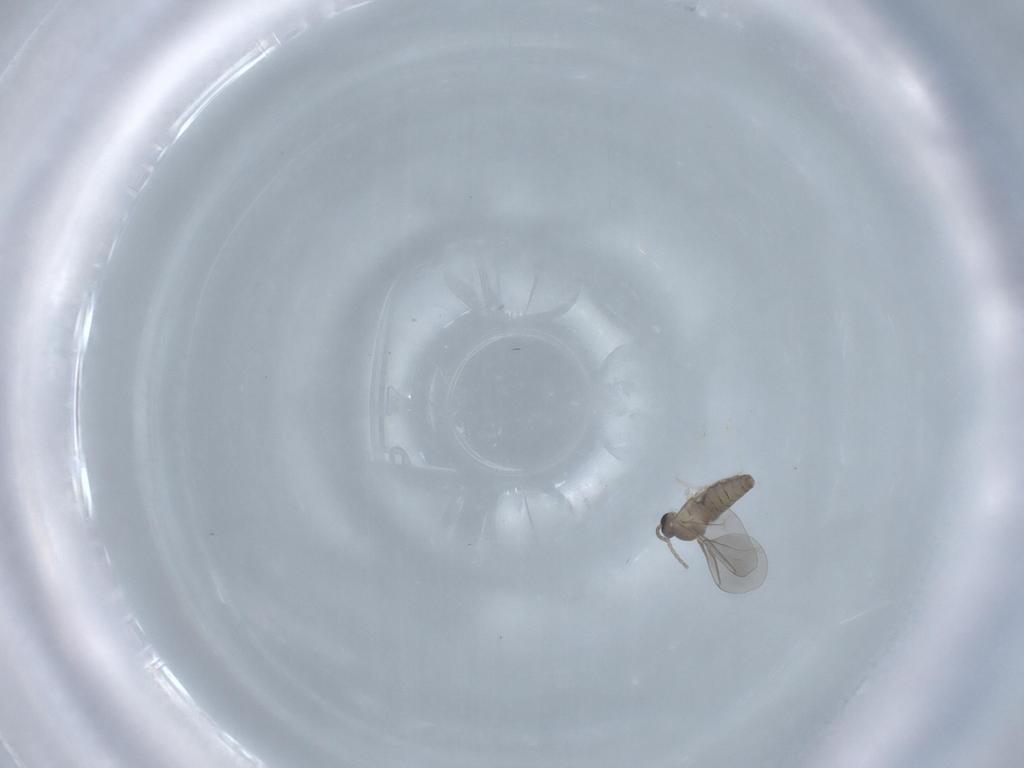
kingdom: Animalia
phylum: Arthropoda
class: Insecta
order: Diptera
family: Cecidomyiidae
